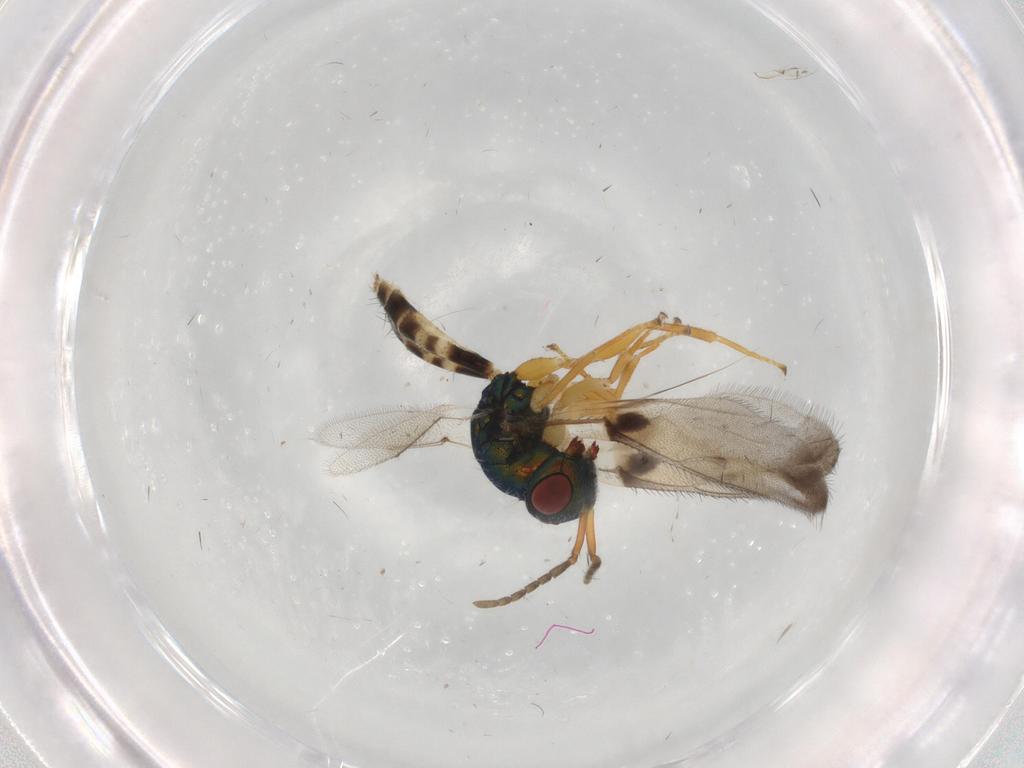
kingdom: Animalia
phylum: Arthropoda
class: Insecta
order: Hymenoptera
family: Pteromalidae
